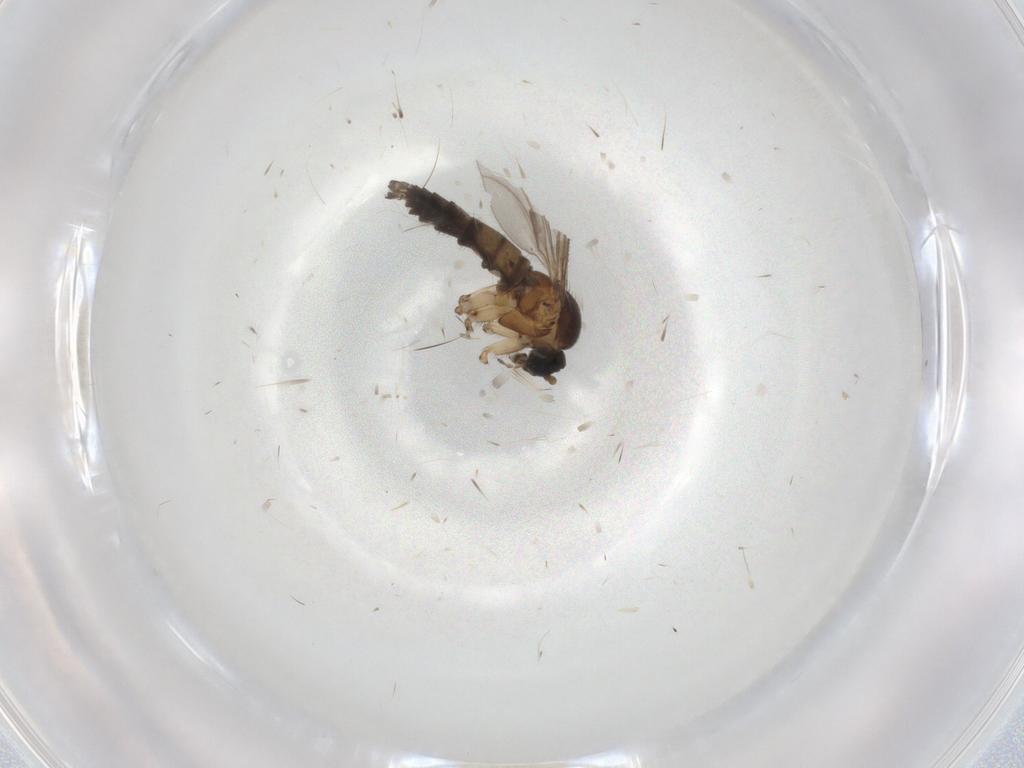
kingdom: Animalia
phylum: Arthropoda
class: Insecta
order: Diptera
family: Sciaridae
